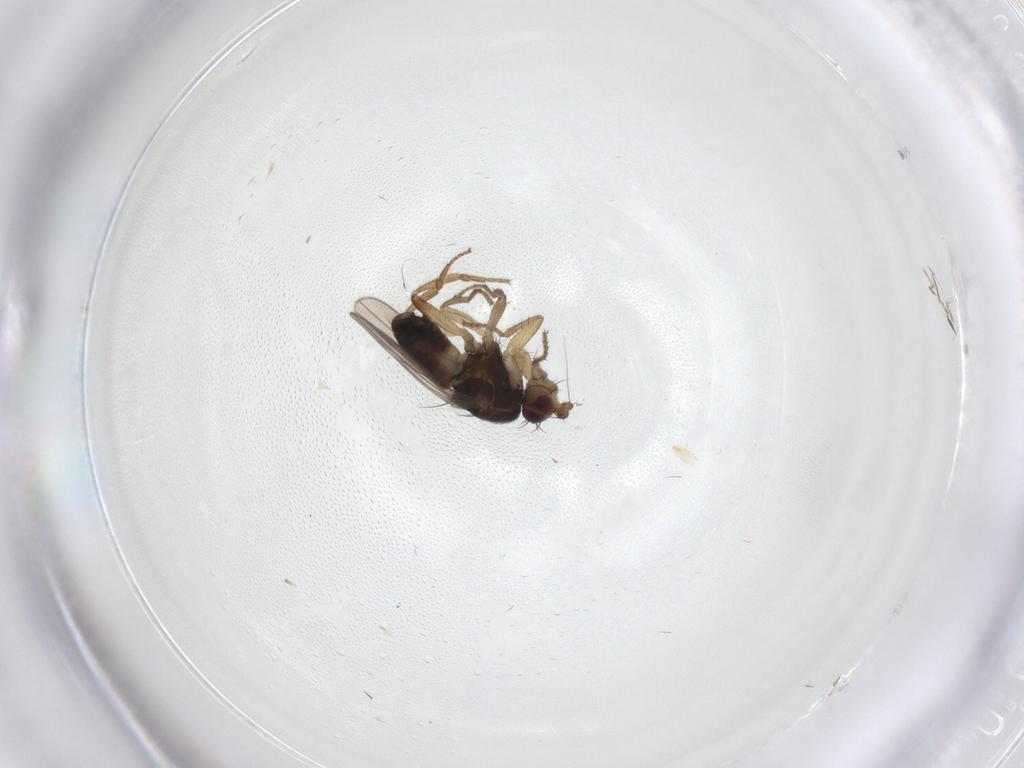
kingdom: Animalia
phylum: Arthropoda
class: Insecta
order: Diptera
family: Sphaeroceridae
